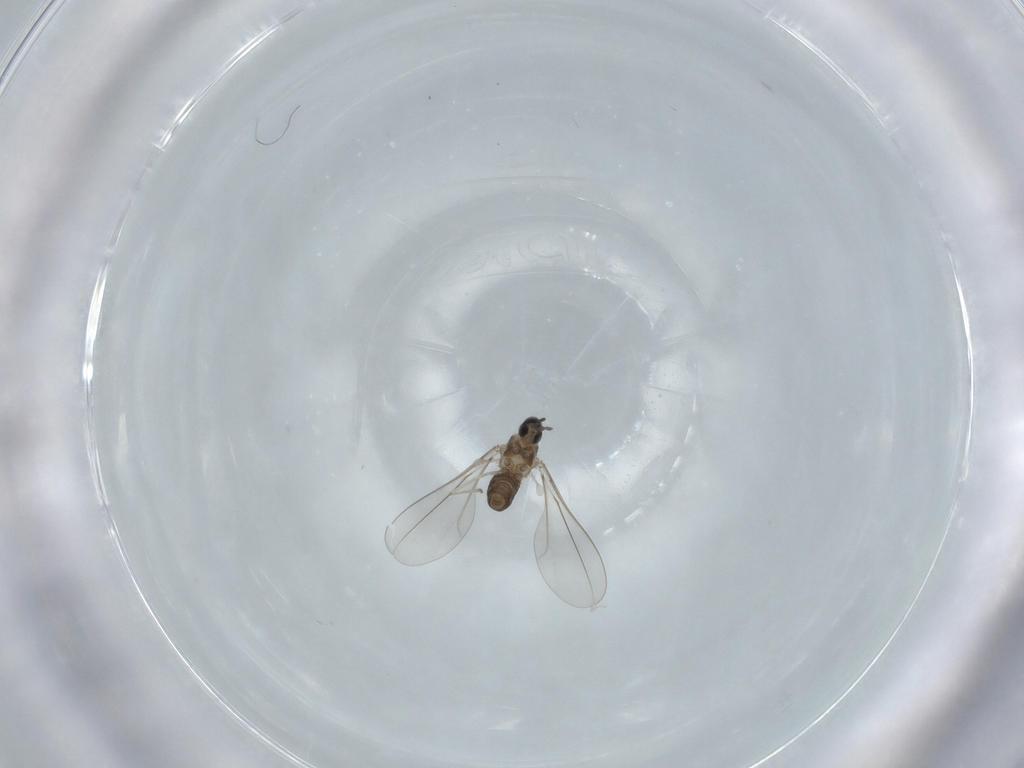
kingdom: Animalia
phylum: Arthropoda
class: Insecta
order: Diptera
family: Cecidomyiidae
